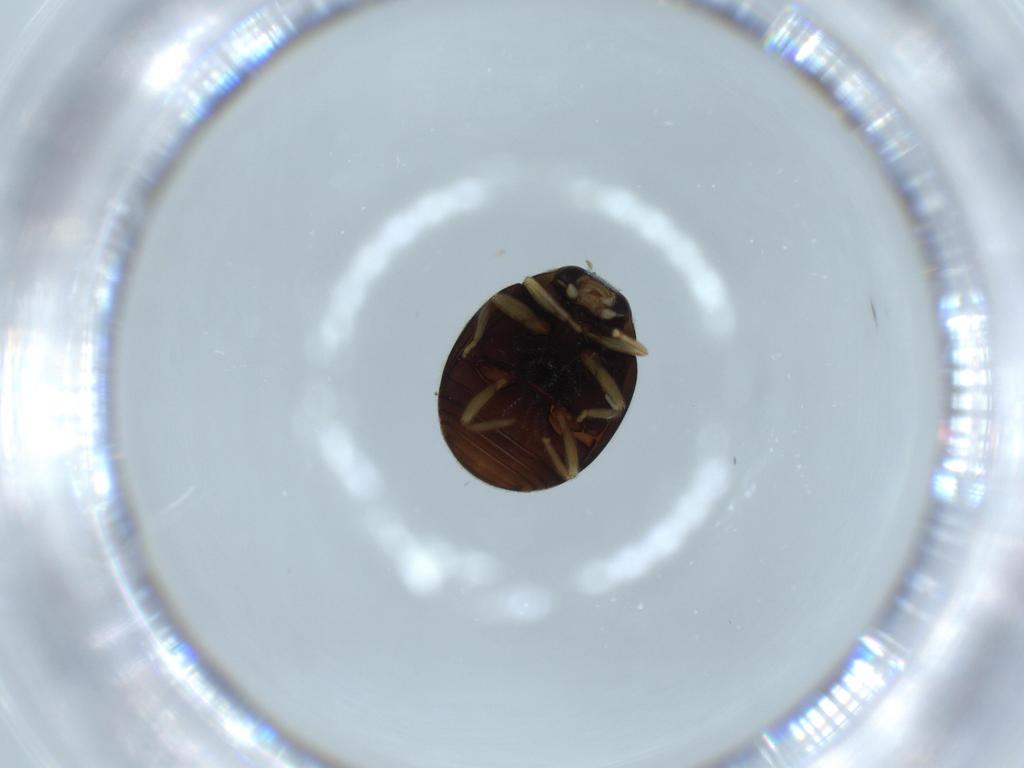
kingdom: Animalia
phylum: Arthropoda
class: Insecta
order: Coleoptera
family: Coccinellidae
